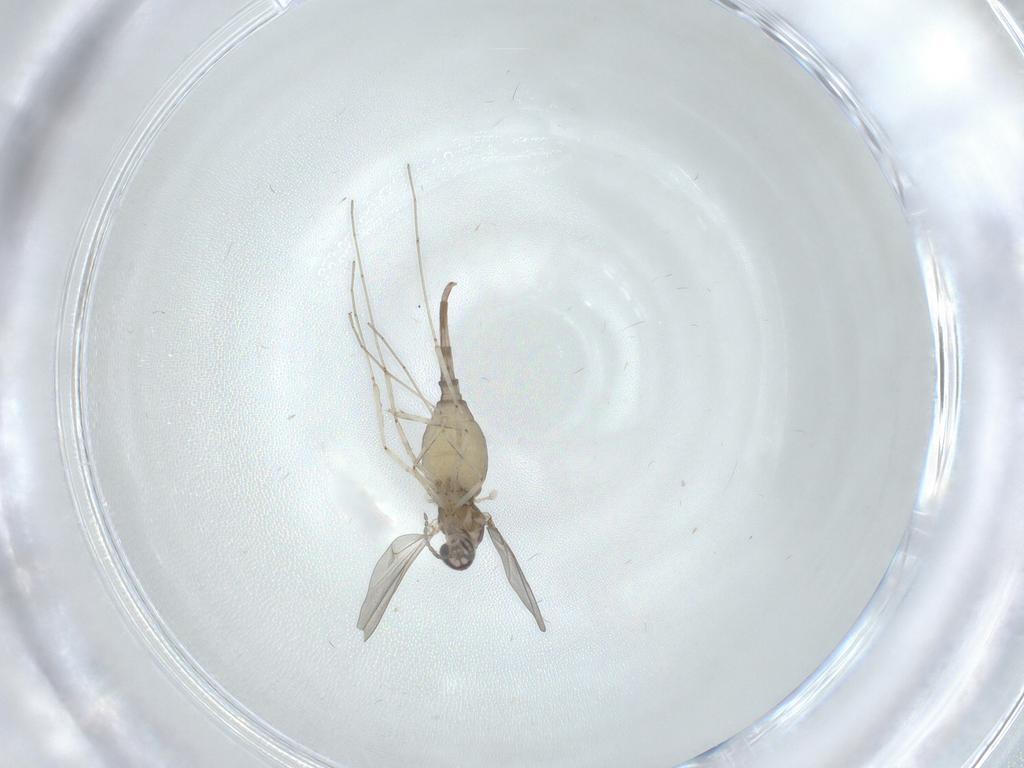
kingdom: Animalia
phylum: Arthropoda
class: Insecta
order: Diptera
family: Cecidomyiidae
